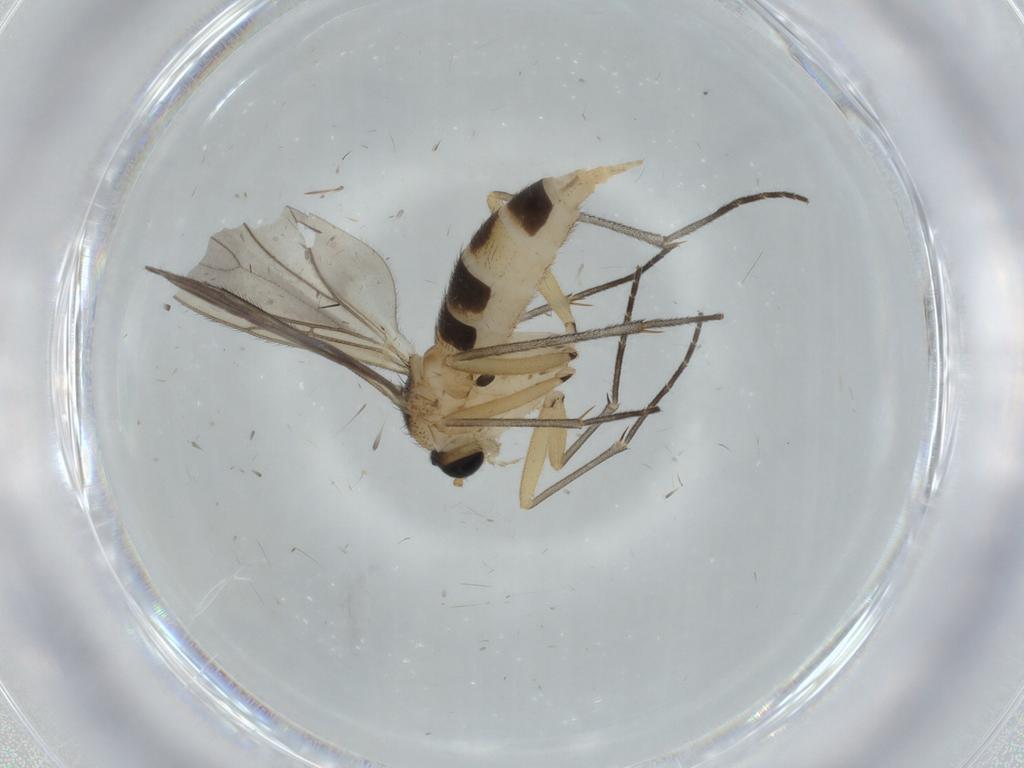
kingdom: Animalia
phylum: Arthropoda
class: Insecta
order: Diptera
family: Sciaridae
